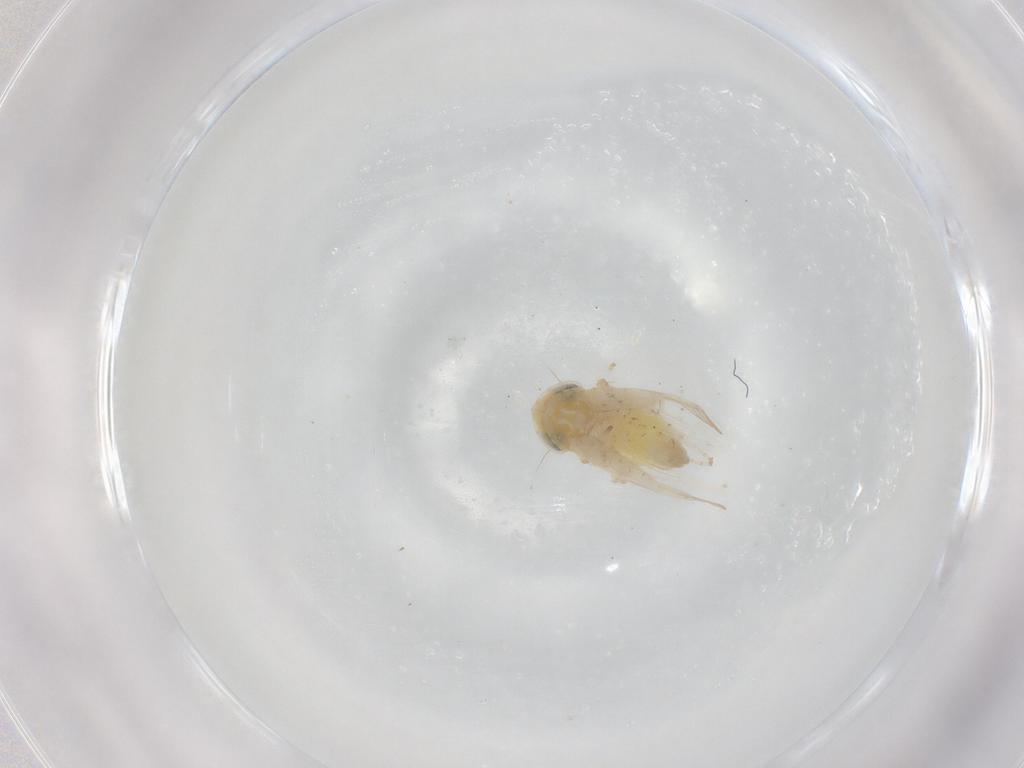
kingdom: Animalia
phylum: Arthropoda
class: Insecta
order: Hemiptera
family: Cicadellidae
